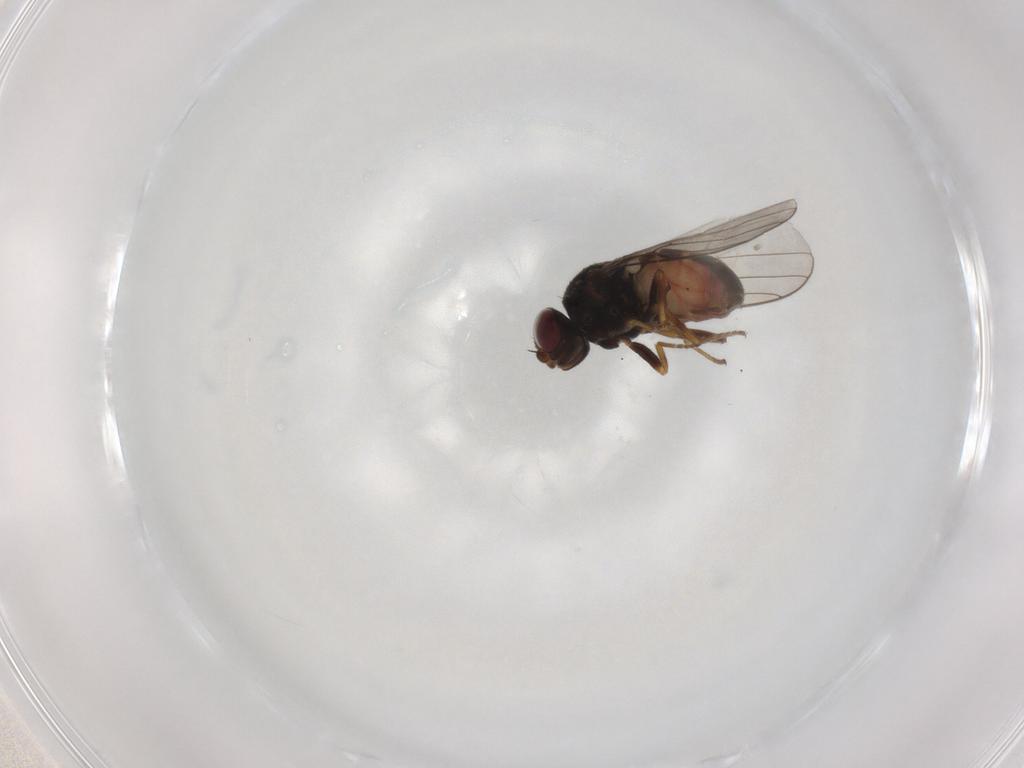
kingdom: Animalia
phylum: Arthropoda
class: Insecta
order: Diptera
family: Chloropidae
